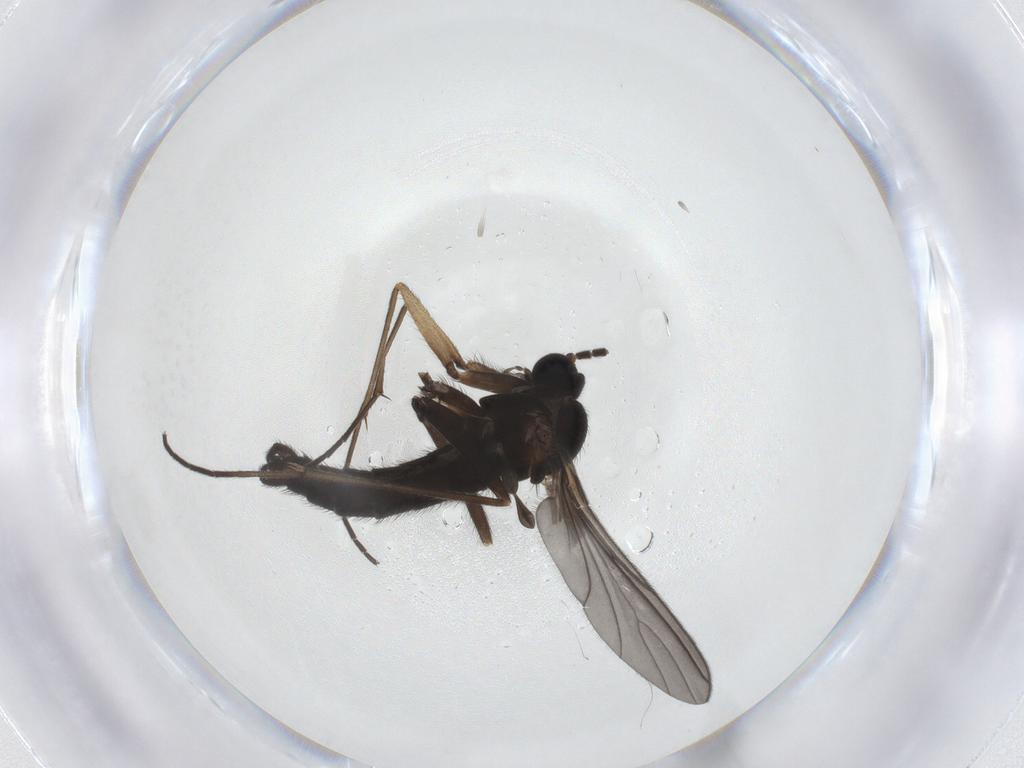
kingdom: Animalia
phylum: Arthropoda
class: Insecta
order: Diptera
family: Sciaridae
